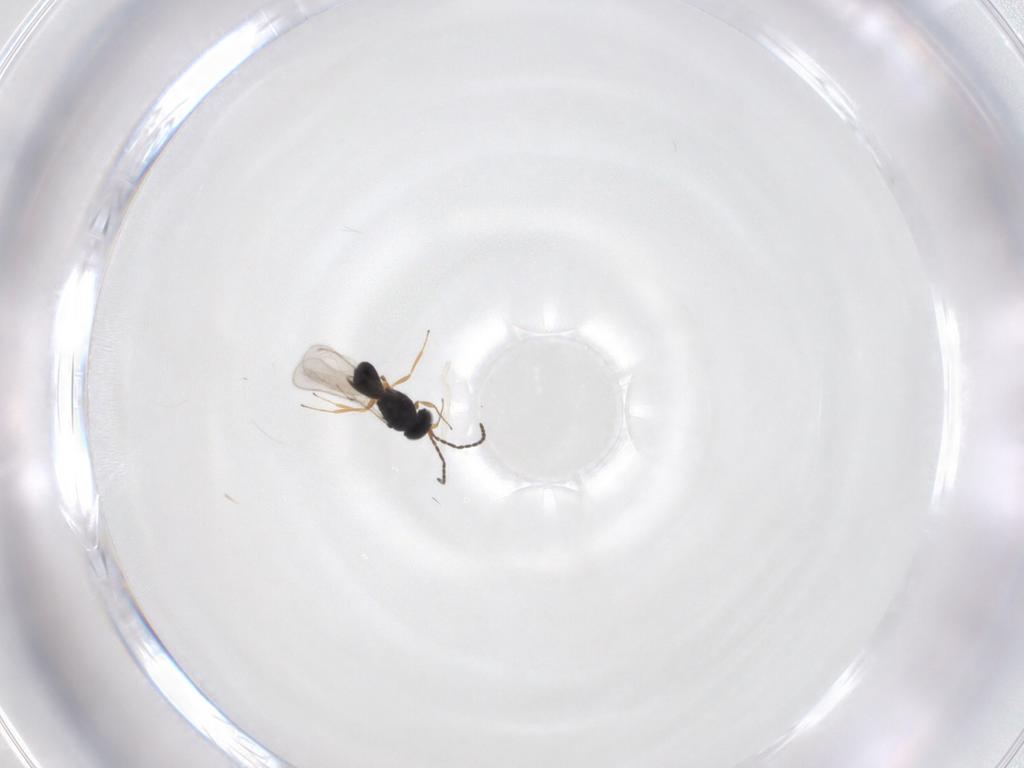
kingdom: Animalia
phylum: Arthropoda
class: Insecta
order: Hymenoptera
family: Scelionidae
